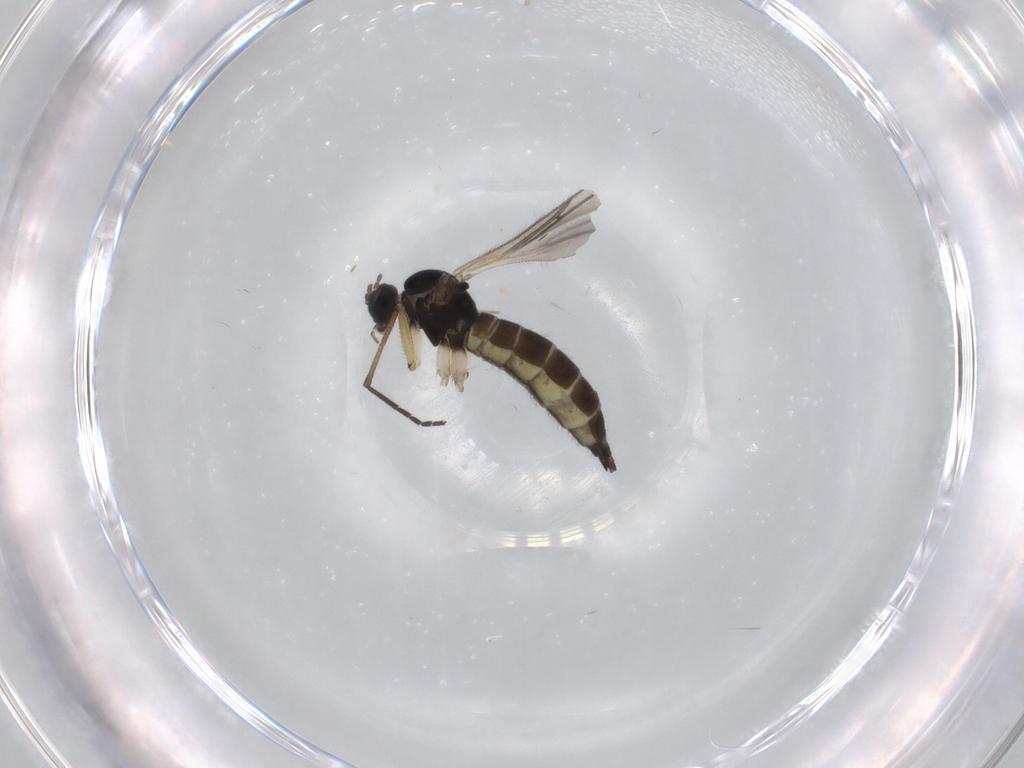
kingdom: Animalia
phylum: Arthropoda
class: Insecta
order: Diptera
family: Sciaridae
